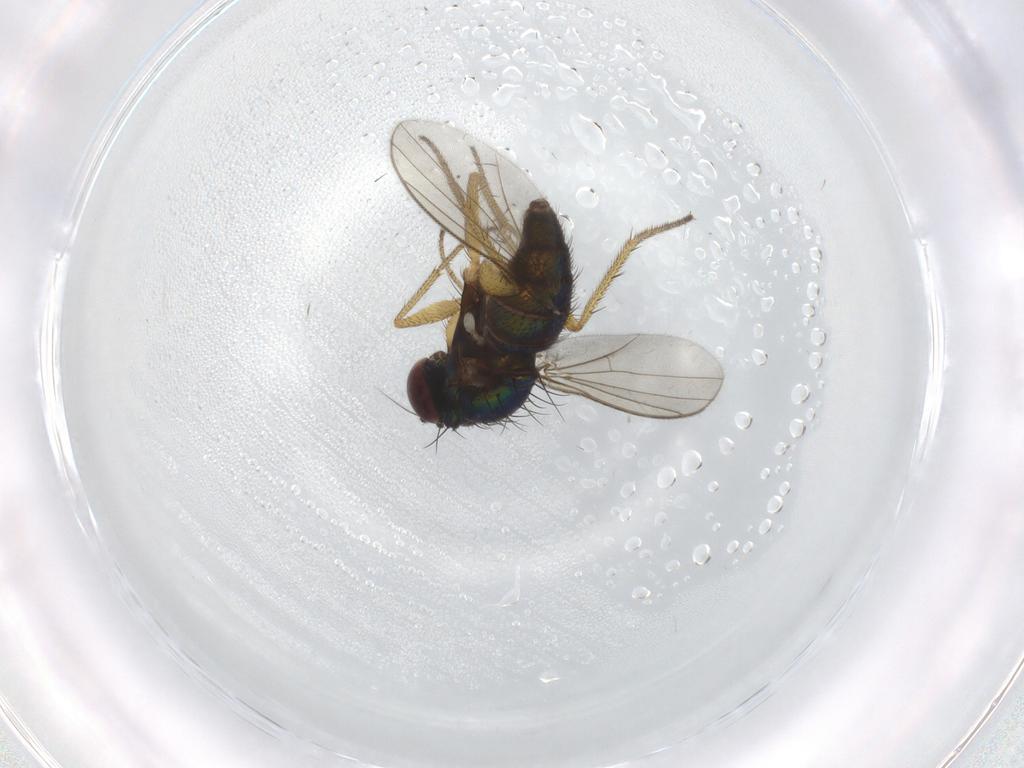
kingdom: Animalia
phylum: Arthropoda
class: Insecta
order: Diptera
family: Dolichopodidae
